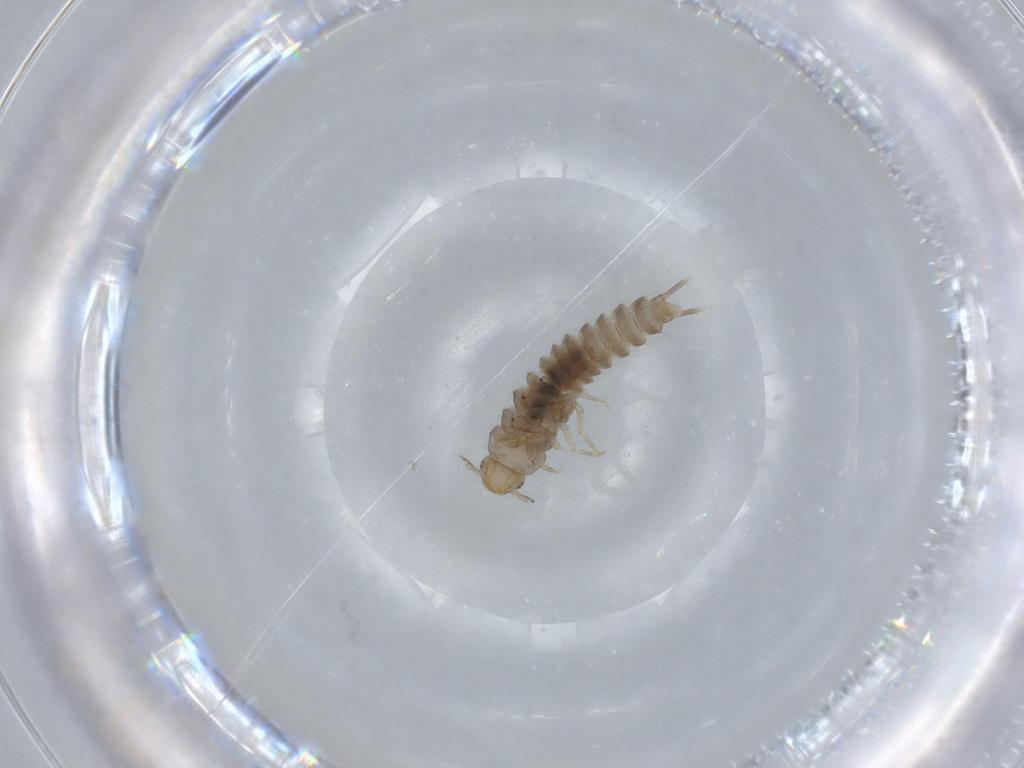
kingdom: Animalia
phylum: Arthropoda
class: Insecta
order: Coleoptera
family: Staphylinidae
